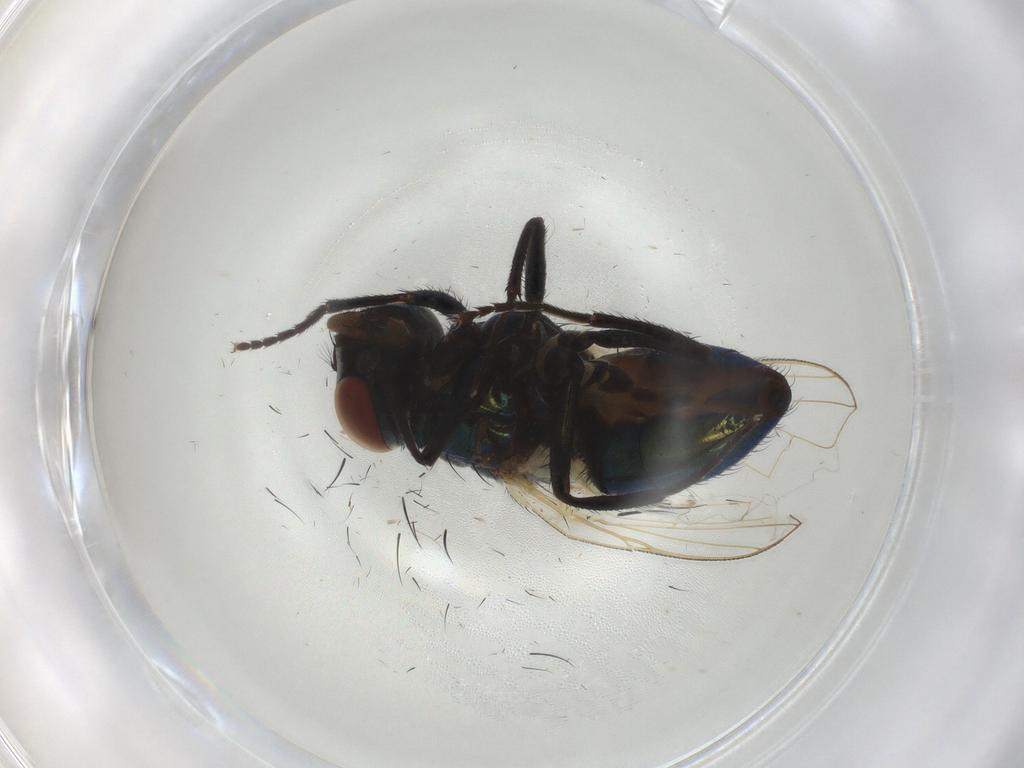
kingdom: Animalia
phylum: Arthropoda
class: Insecta
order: Diptera
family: Muscidae
